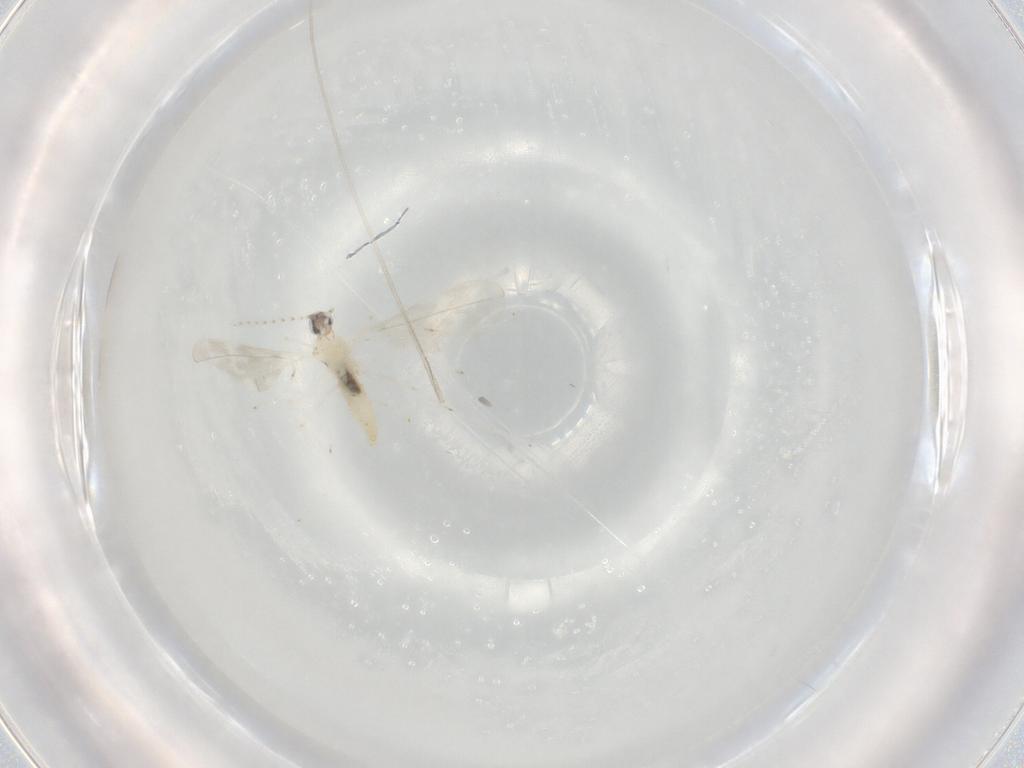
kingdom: Animalia
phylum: Arthropoda
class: Insecta
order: Diptera
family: Cecidomyiidae
